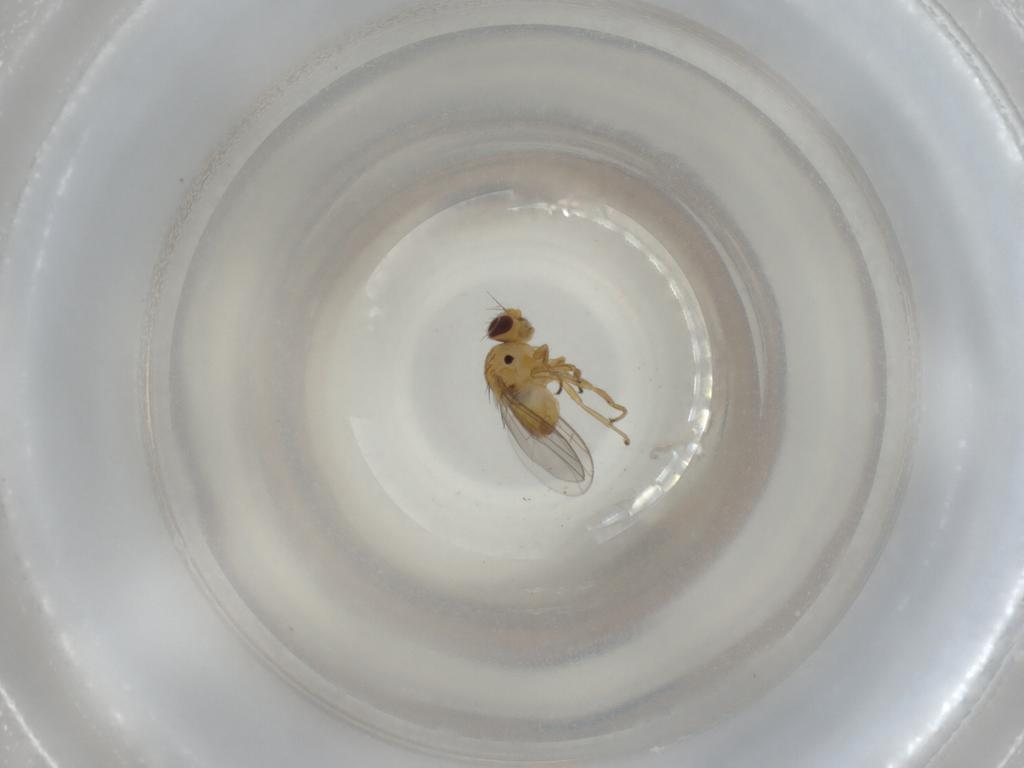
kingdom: Animalia
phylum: Arthropoda
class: Insecta
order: Diptera
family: Chloropidae
